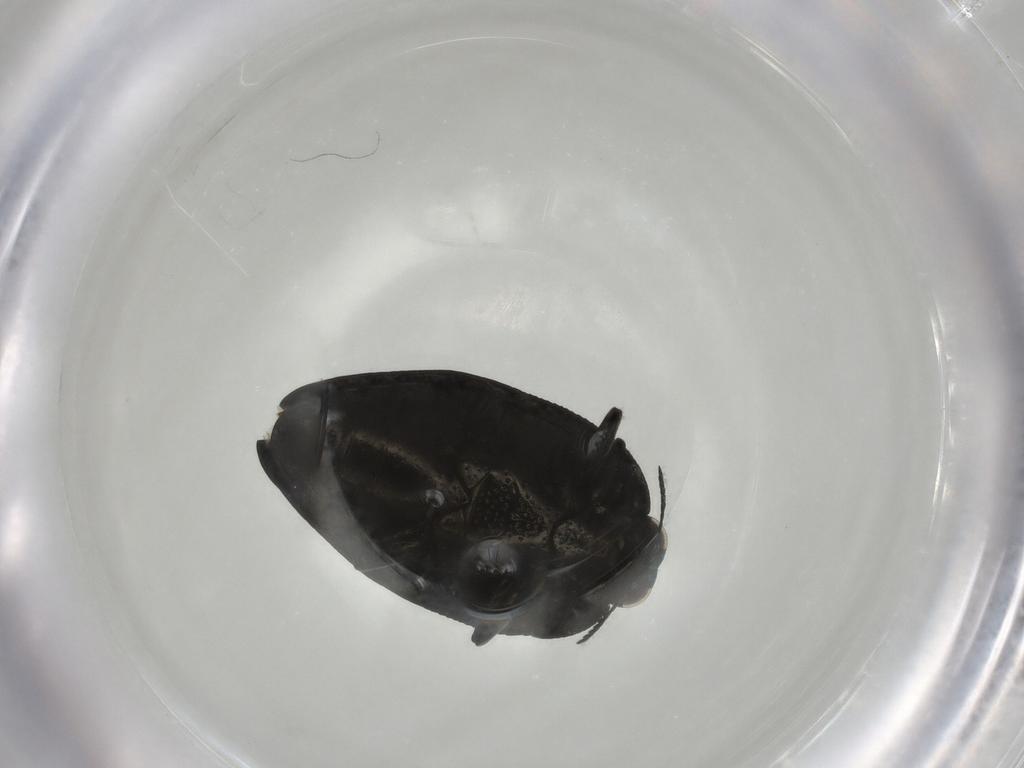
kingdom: Animalia
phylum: Arthropoda
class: Insecta
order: Coleoptera
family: Buprestidae
